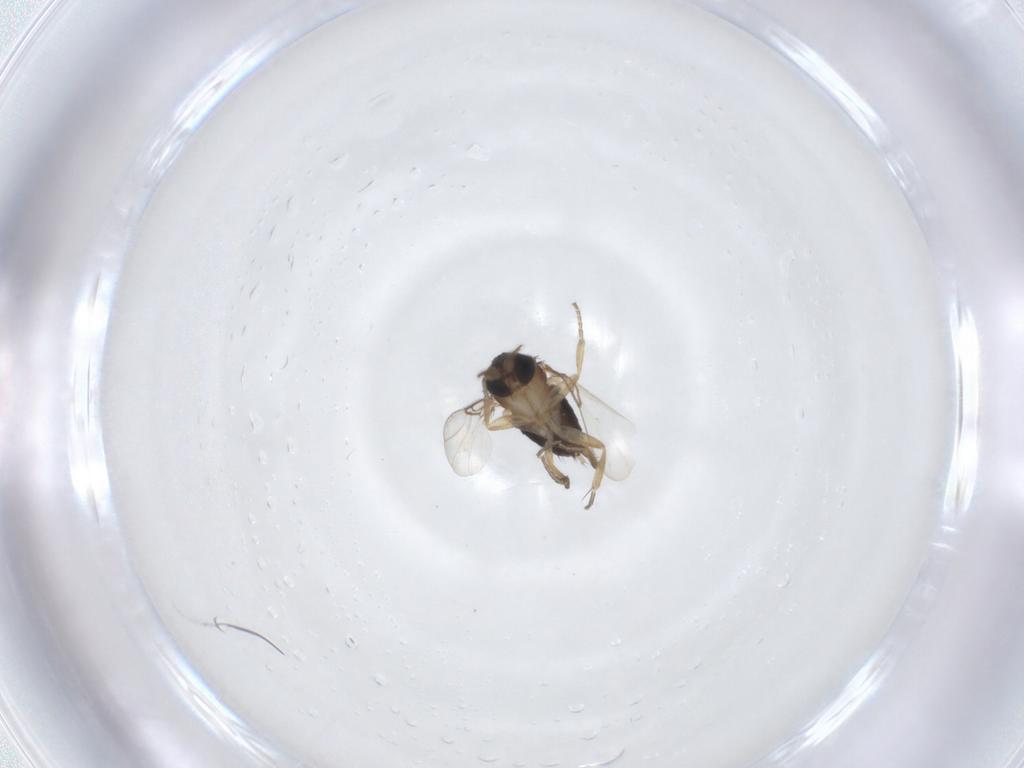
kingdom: Animalia
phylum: Arthropoda
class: Insecta
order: Diptera
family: Phoridae
